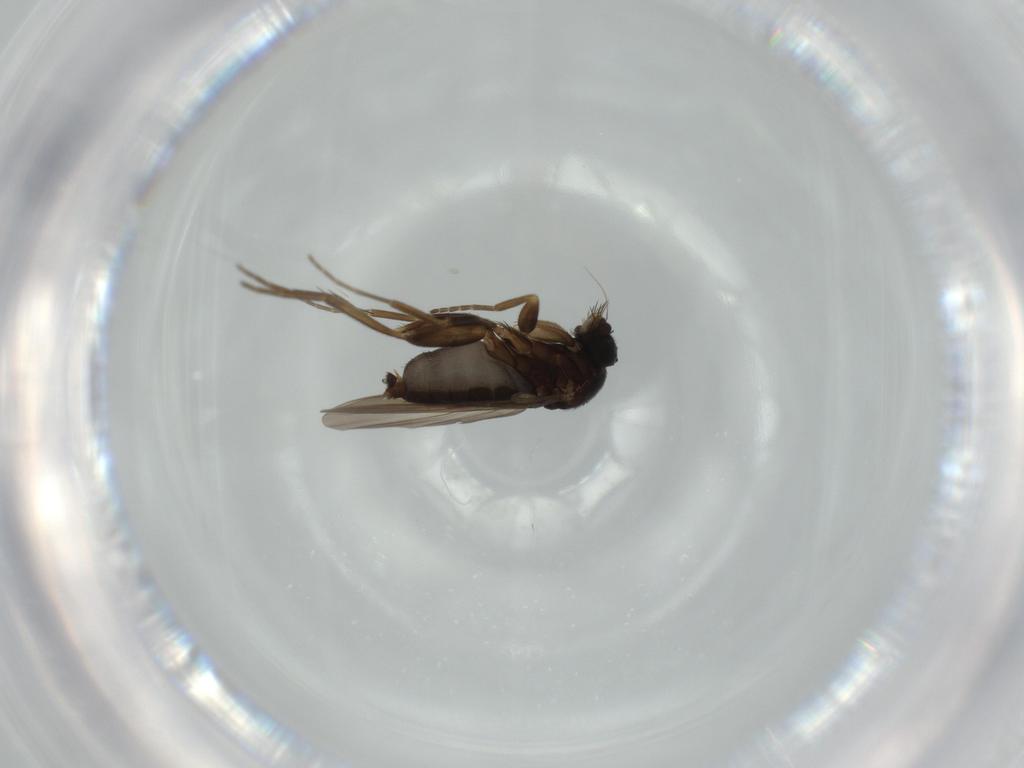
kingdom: Animalia
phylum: Arthropoda
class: Insecta
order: Diptera
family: Phoridae
